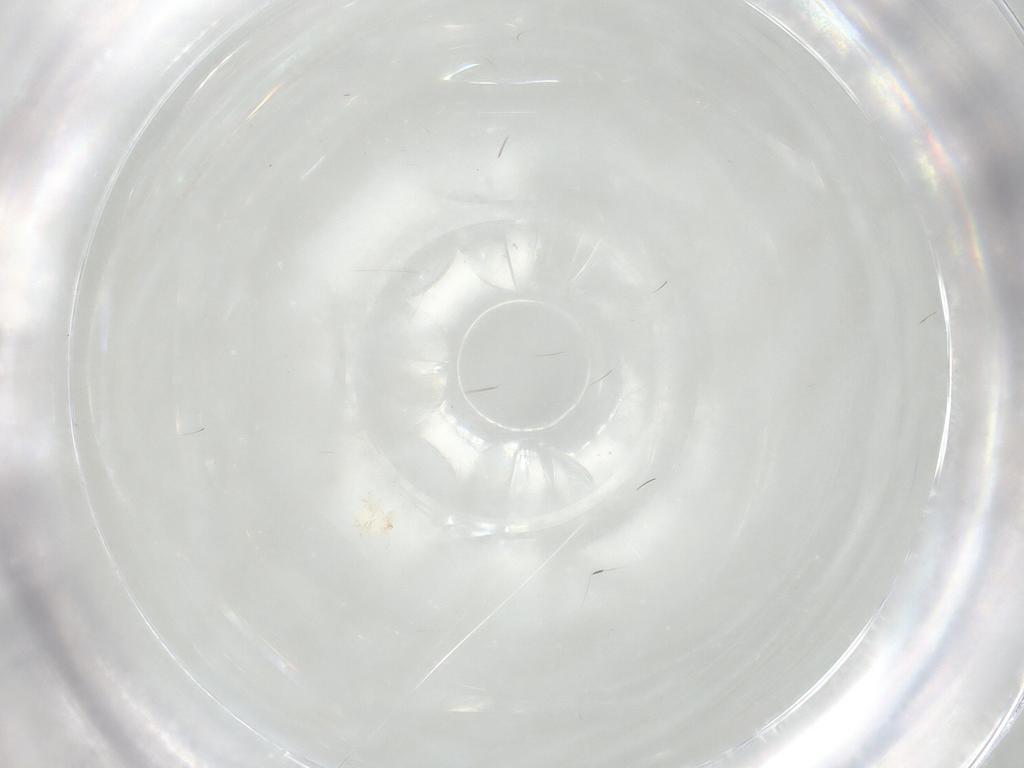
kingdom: Animalia
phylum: Arthropoda
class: Insecta
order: Neuroptera
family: Coniopterygidae
